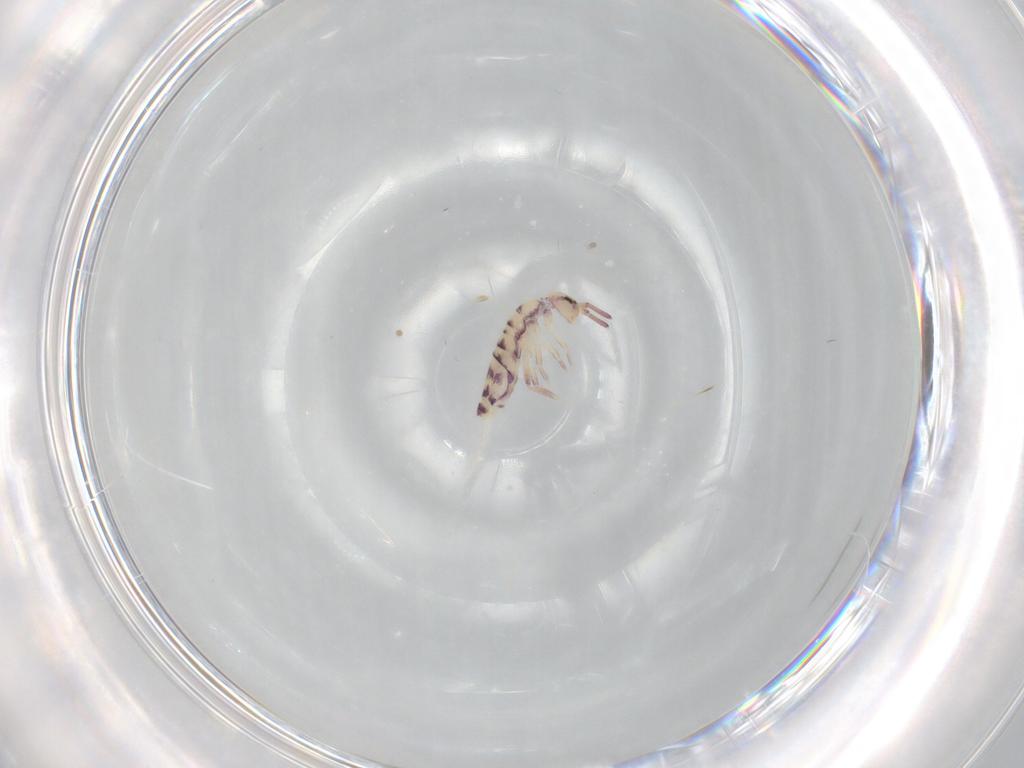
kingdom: Animalia
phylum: Arthropoda
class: Collembola
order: Entomobryomorpha
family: Entomobryidae
